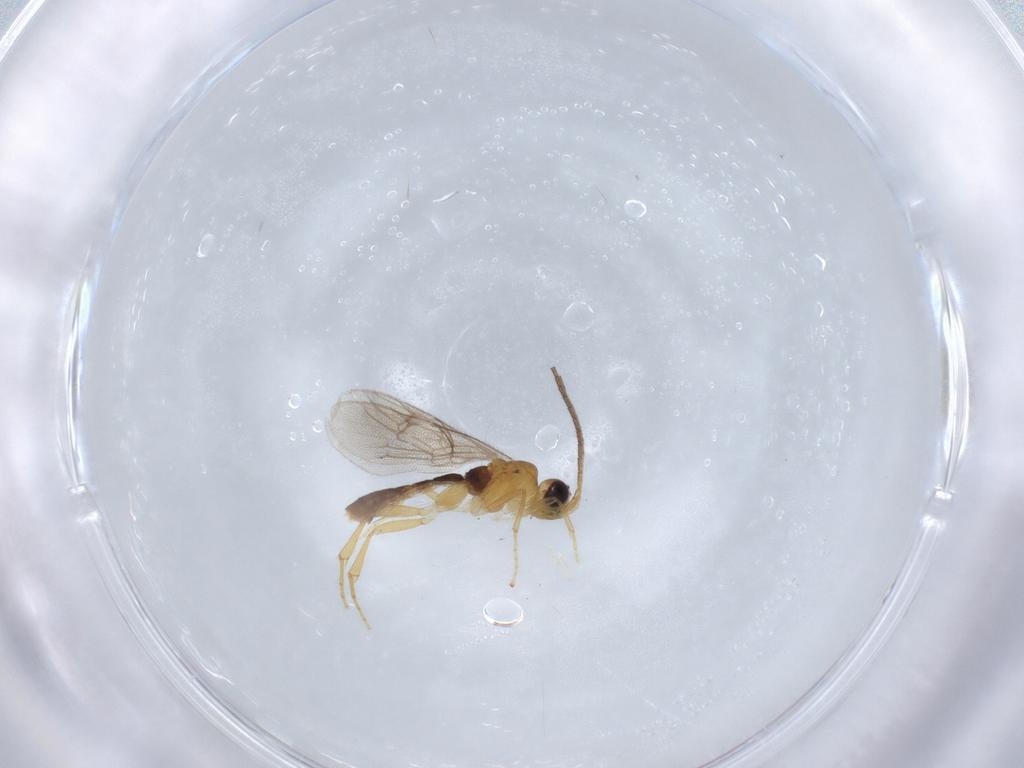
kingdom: Animalia
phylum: Arthropoda
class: Insecta
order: Hymenoptera
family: Ichneumonidae
